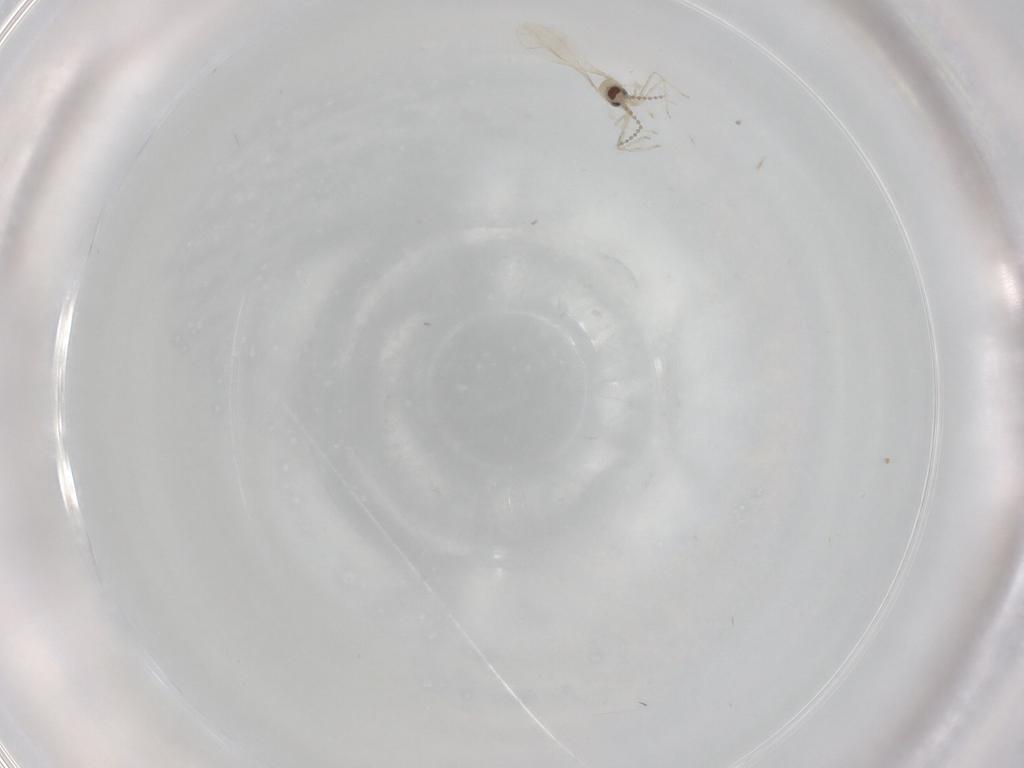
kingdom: Animalia
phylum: Arthropoda
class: Insecta
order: Diptera
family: Cecidomyiidae
